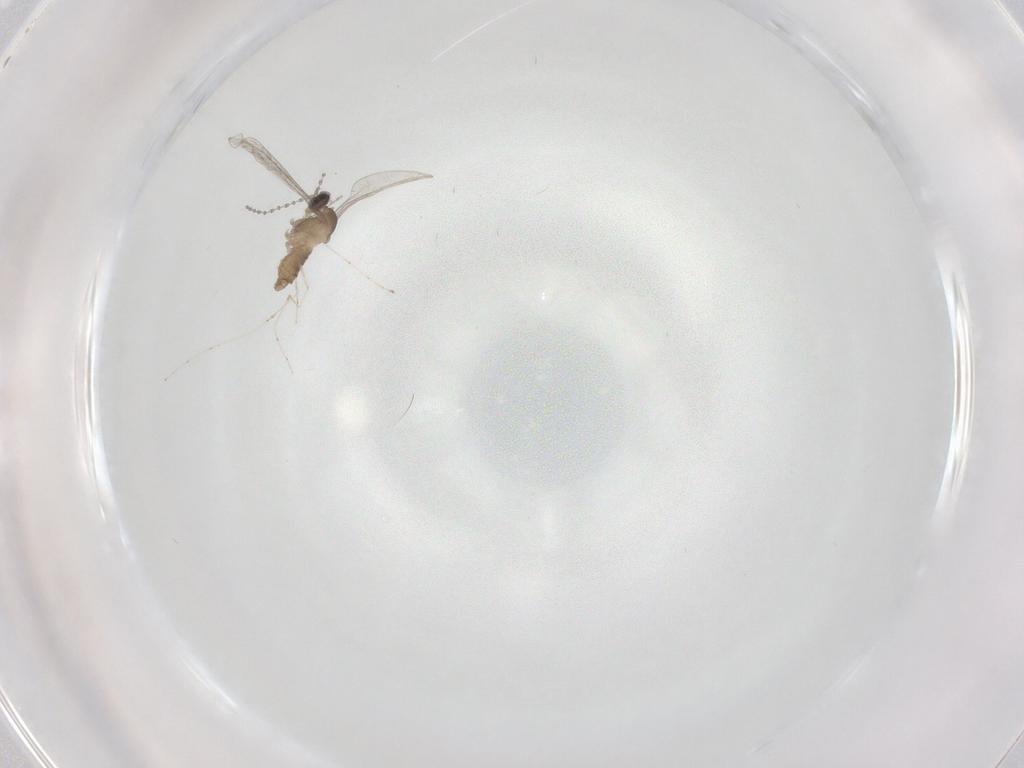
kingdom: Animalia
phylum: Arthropoda
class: Insecta
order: Diptera
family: Cecidomyiidae
